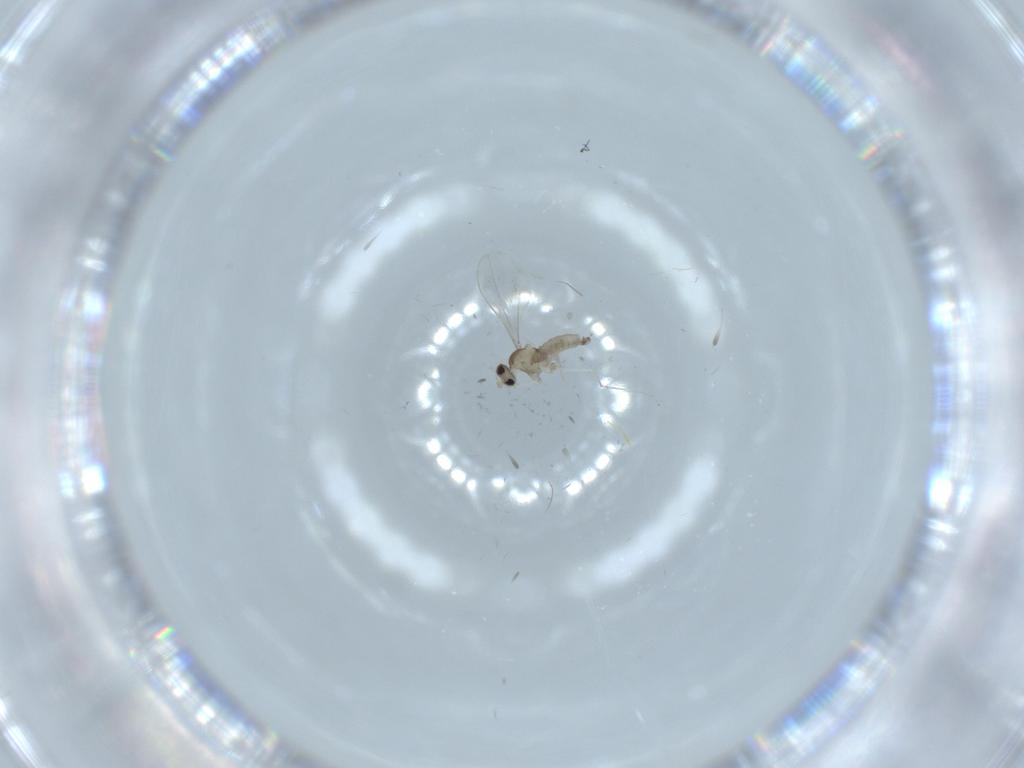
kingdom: Animalia
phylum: Arthropoda
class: Insecta
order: Diptera
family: Cecidomyiidae
